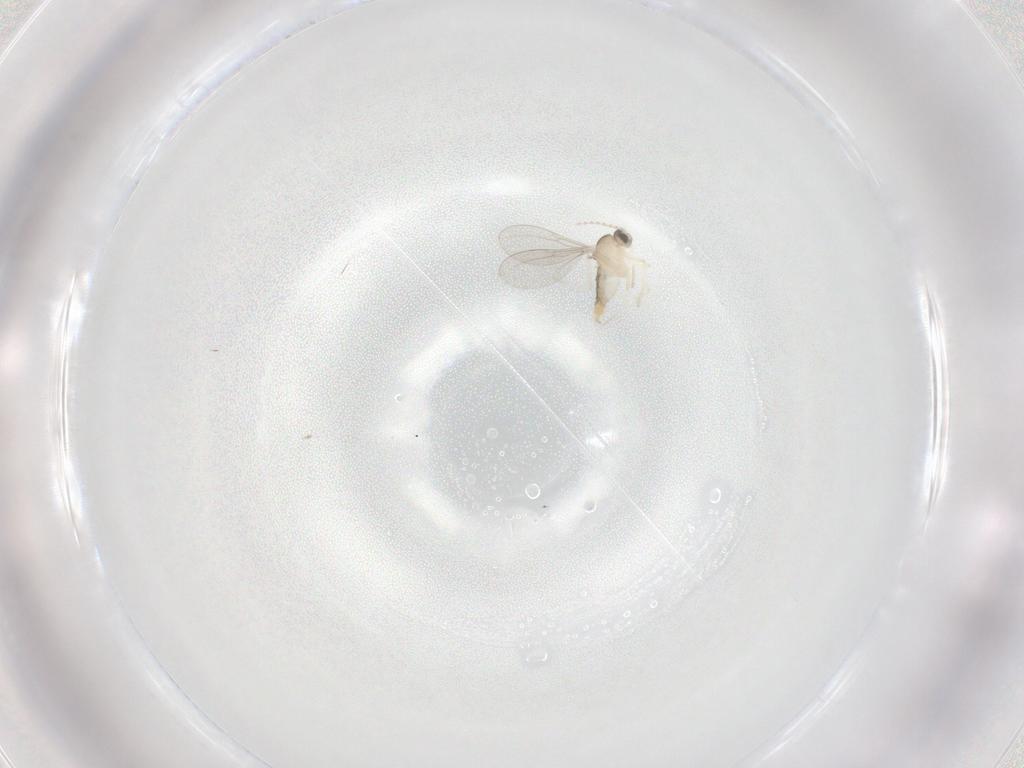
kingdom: Animalia
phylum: Arthropoda
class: Insecta
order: Diptera
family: Cecidomyiidae
